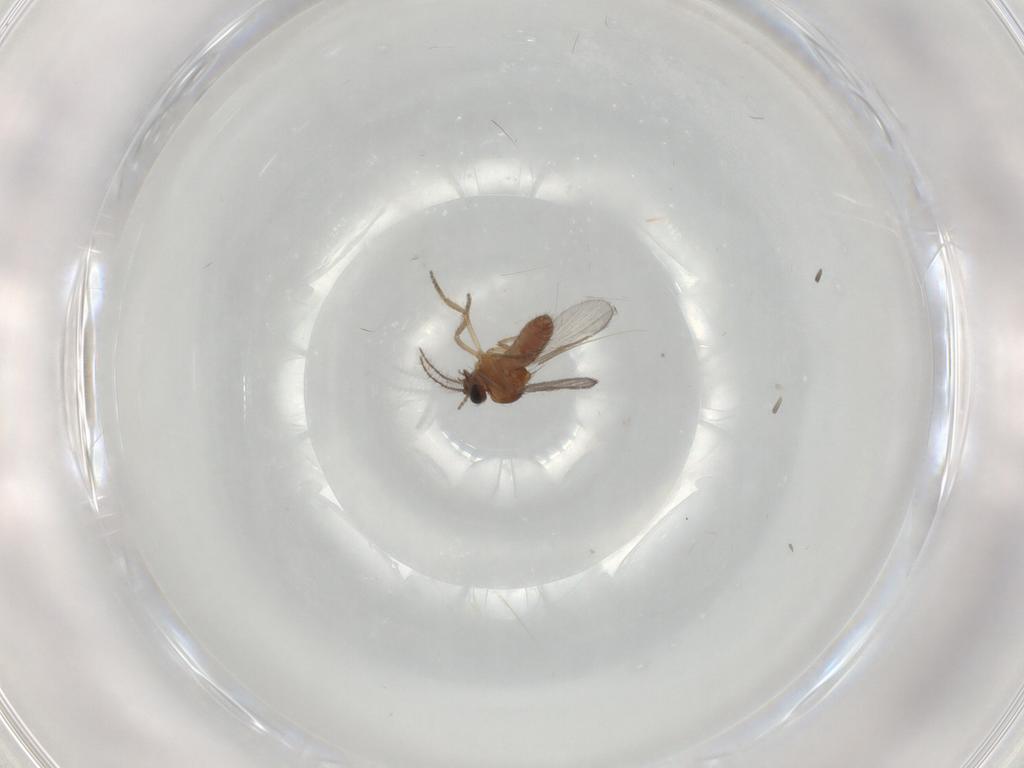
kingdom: Animalia
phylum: Arthropoda
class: Insecta
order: Diptera
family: Ceratopogonidae
